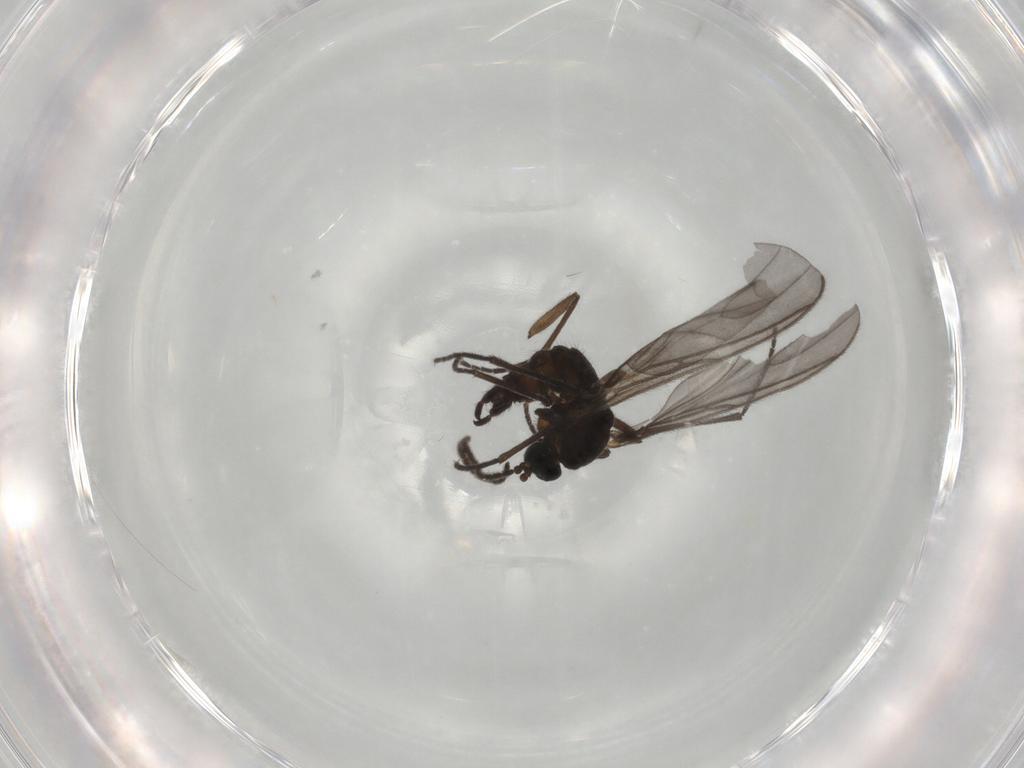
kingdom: Animalia
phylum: Arthropoda
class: Insecta
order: Diptera
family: Sciaridae
